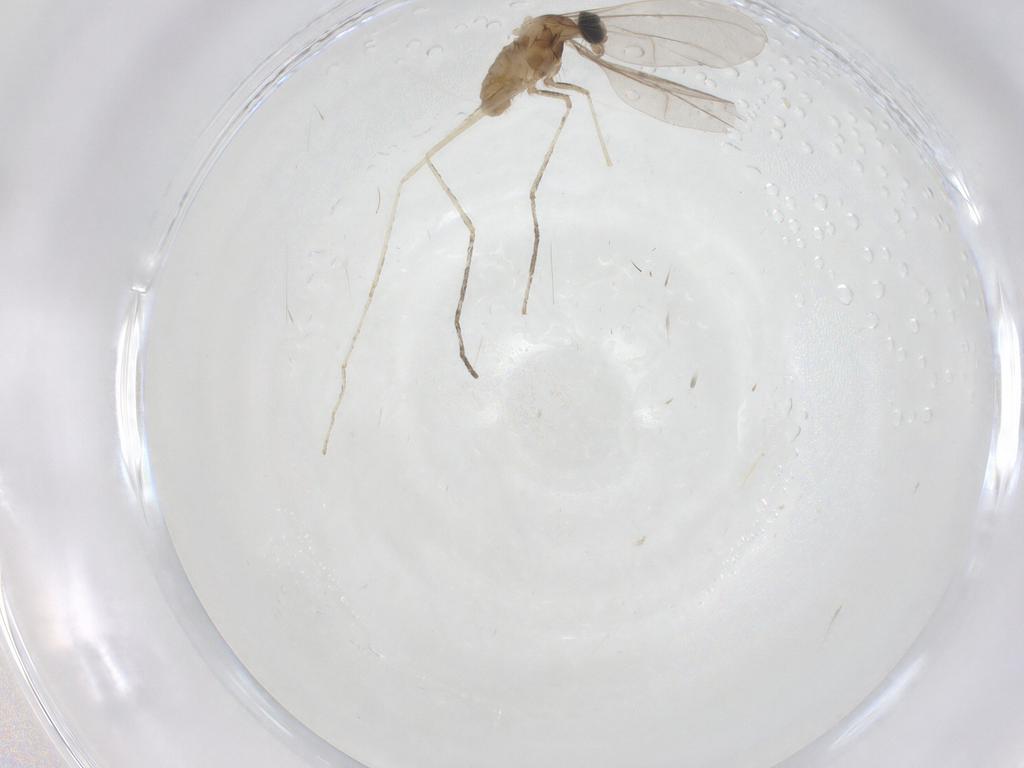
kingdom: Animalia
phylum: Arthropoda
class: Insecta
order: Diptera
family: Cecidomyiidae
